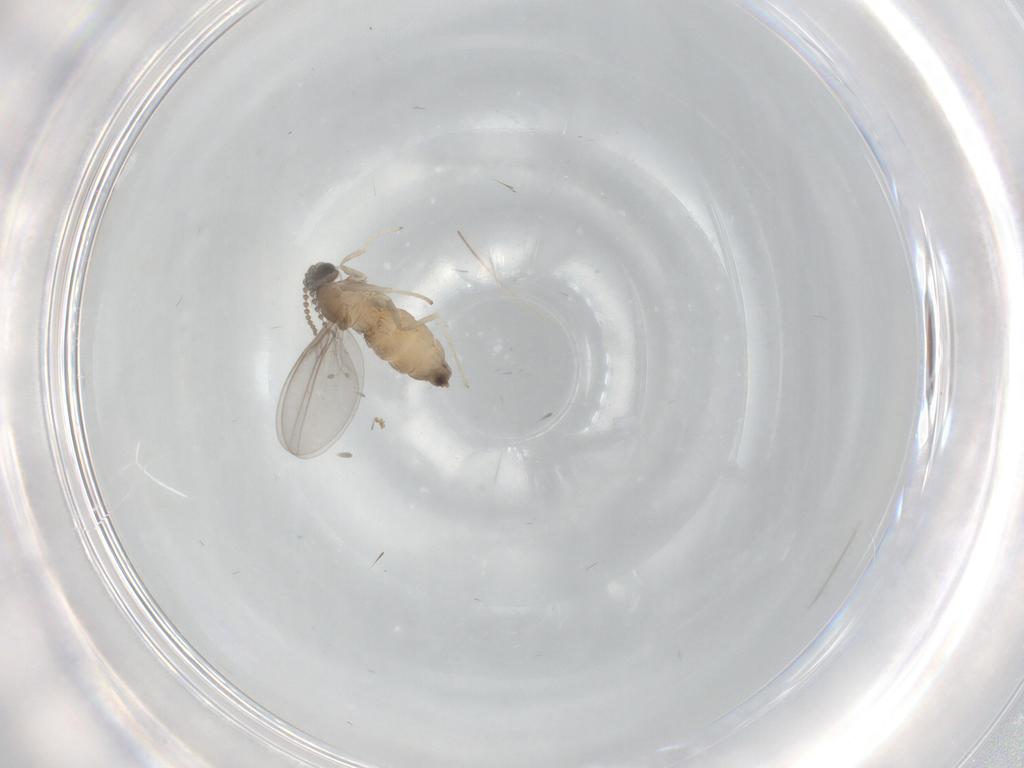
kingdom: Animalia
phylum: Arthropoda
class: Insecta
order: Diptera
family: Cecidomyiidae
